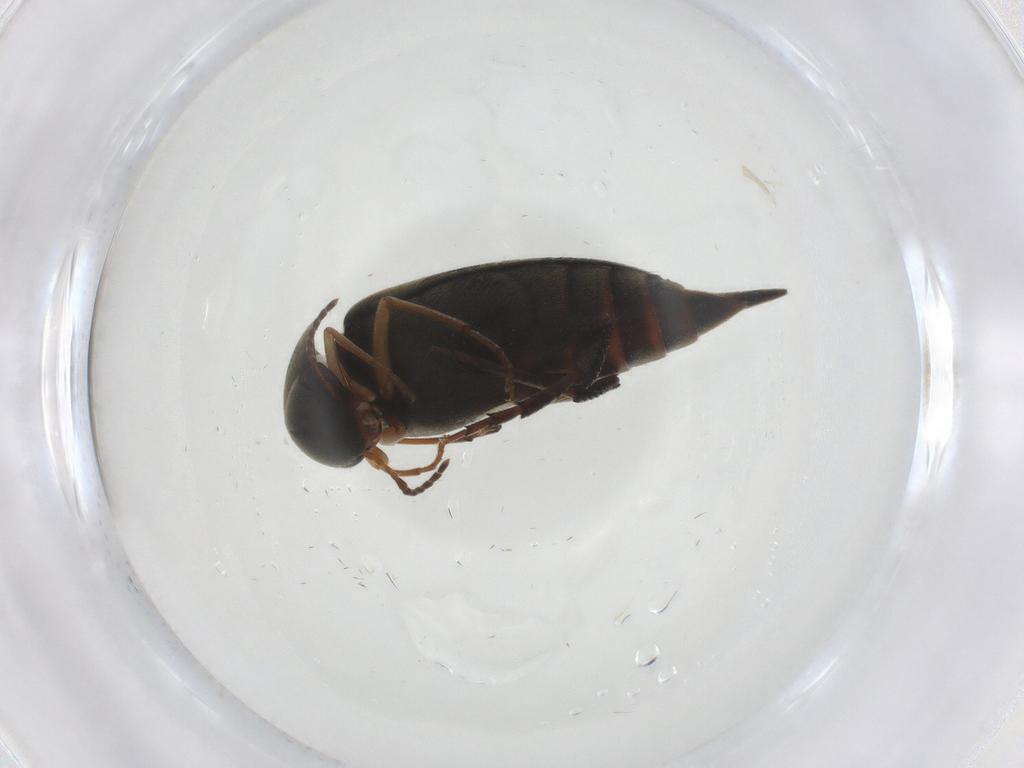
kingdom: Animalia
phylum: Arthropoda
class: Insecta
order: Coleoptera
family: Mordellidae
